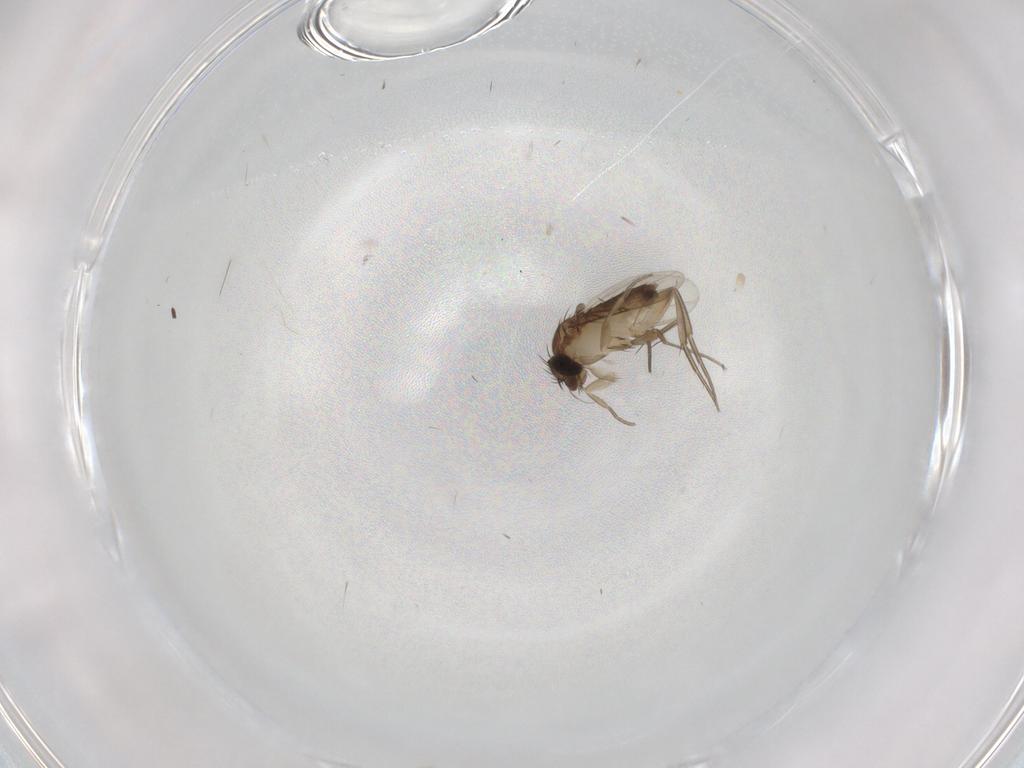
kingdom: Animalia
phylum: Arthropoda
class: Insecta
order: Diptera
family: Phoridae
